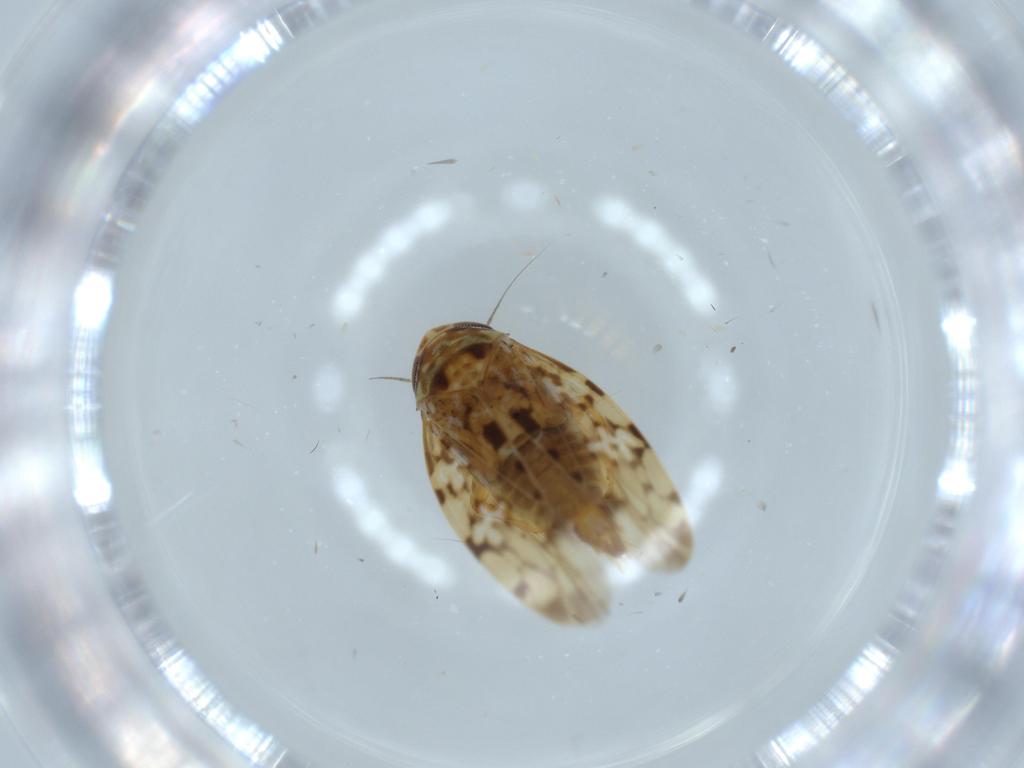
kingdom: Animalia
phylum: Arthropoda
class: Insecta
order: Hemiptera
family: Cicadellidae
